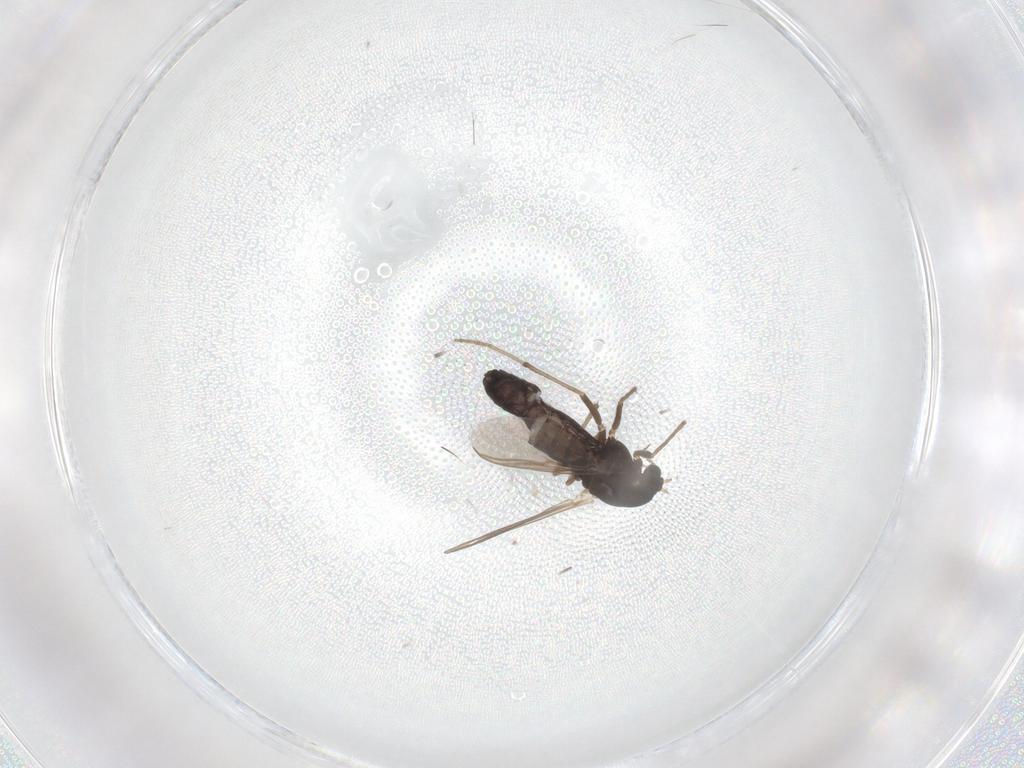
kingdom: Animalia
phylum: Arthropoda
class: Insecta
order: Diptera
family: Chironomidae
